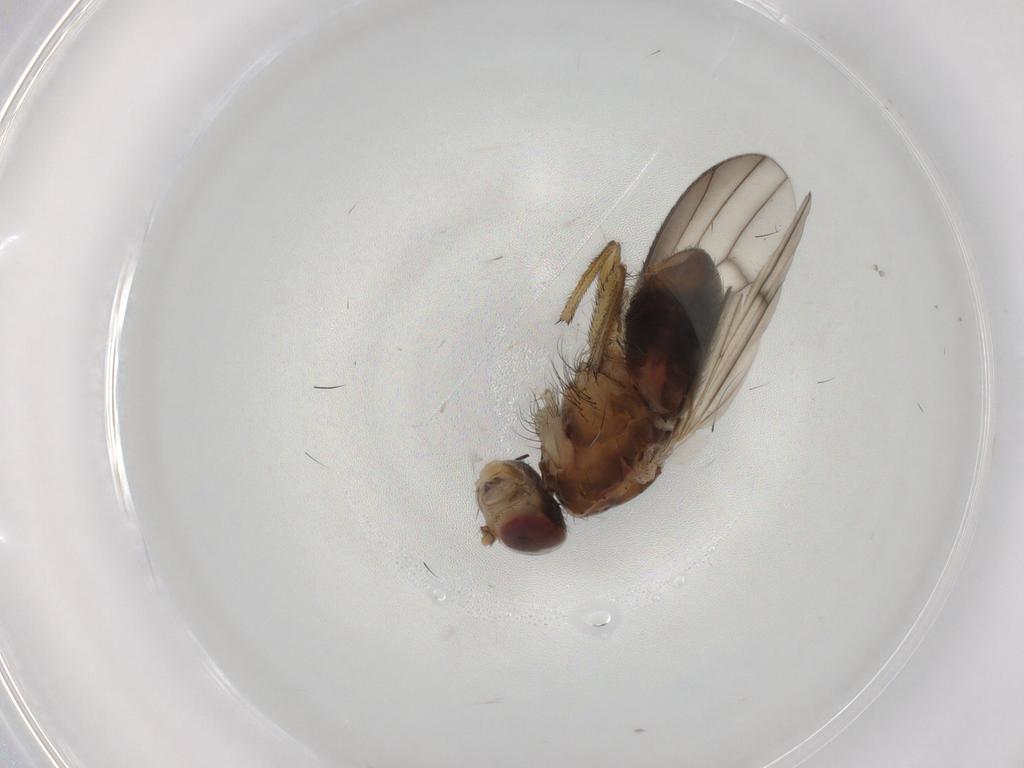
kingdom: Animalia
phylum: Arthropoda
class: Insecta
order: Diptera
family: Heleomyzidae
